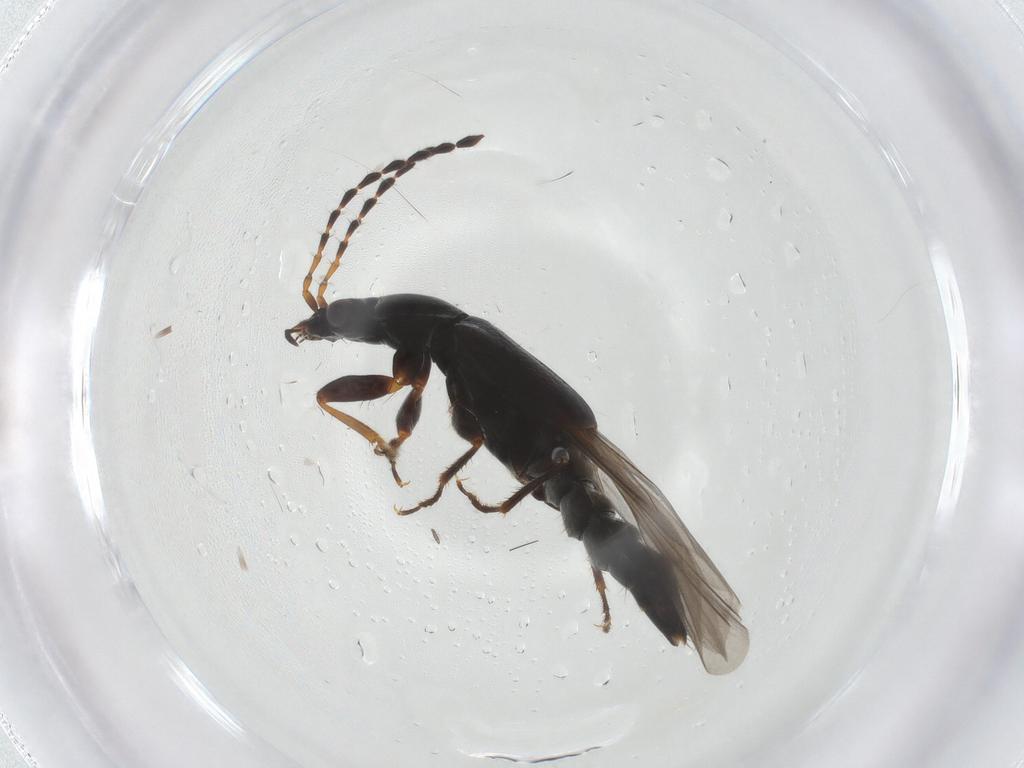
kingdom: Animalia
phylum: Arthropoda
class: Insecta
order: Coleoptera
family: Staphylinidae
